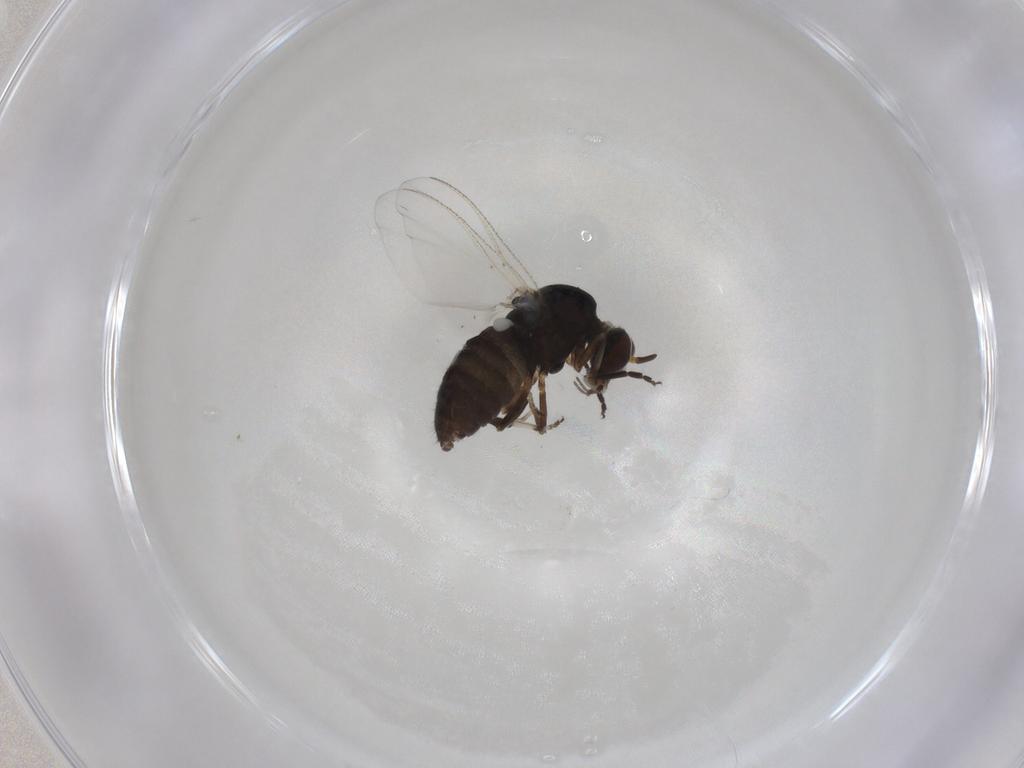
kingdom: Animalia
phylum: Arthropoda
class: Insecta
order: Diptera
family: Simuliidae
